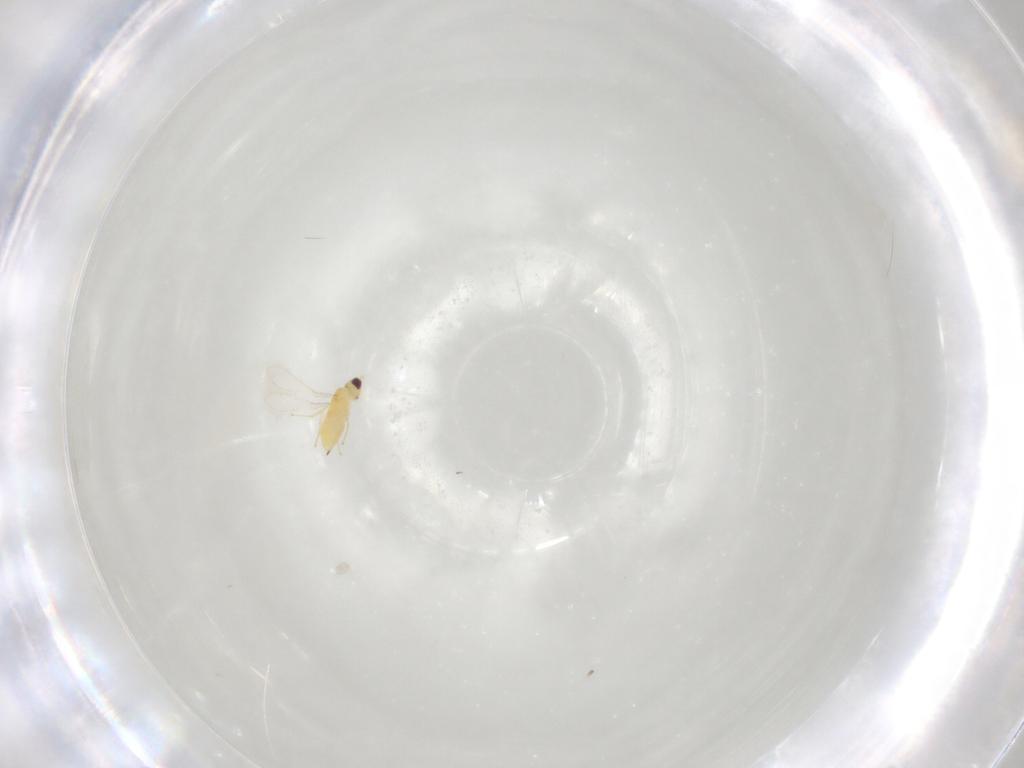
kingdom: Animalia
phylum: Arthropoda
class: Insecta
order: Hymenoptera
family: Mymaridae
